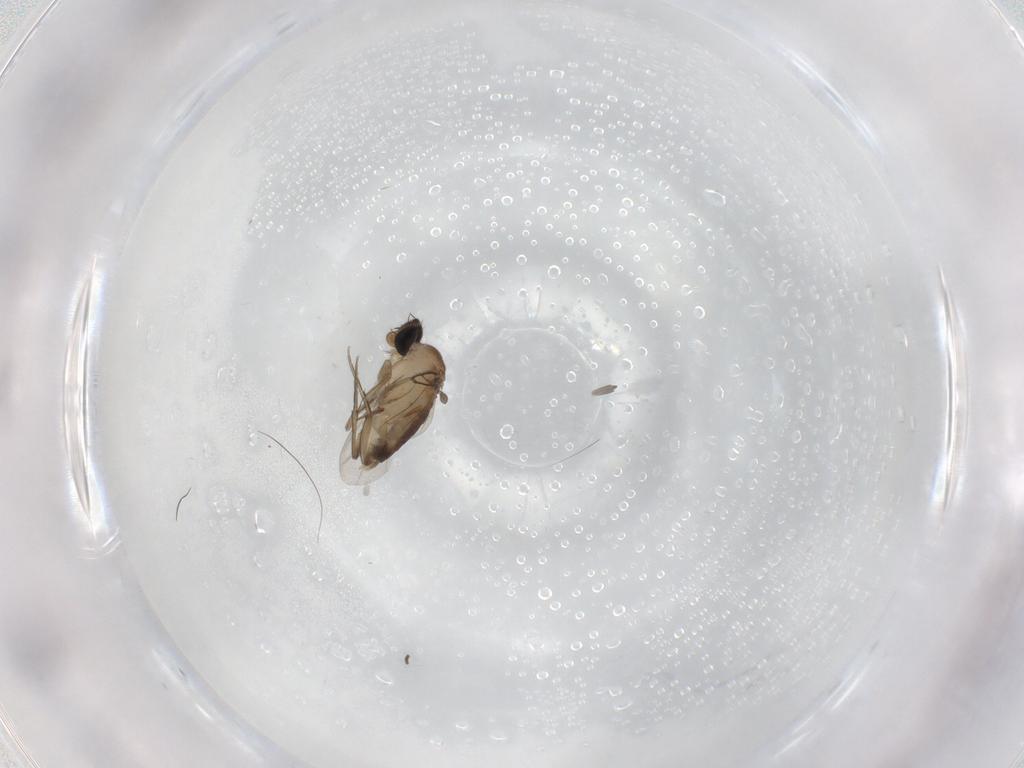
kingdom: Animalia
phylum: Arthropoda
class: Insecta
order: Diptera
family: Phoridae
